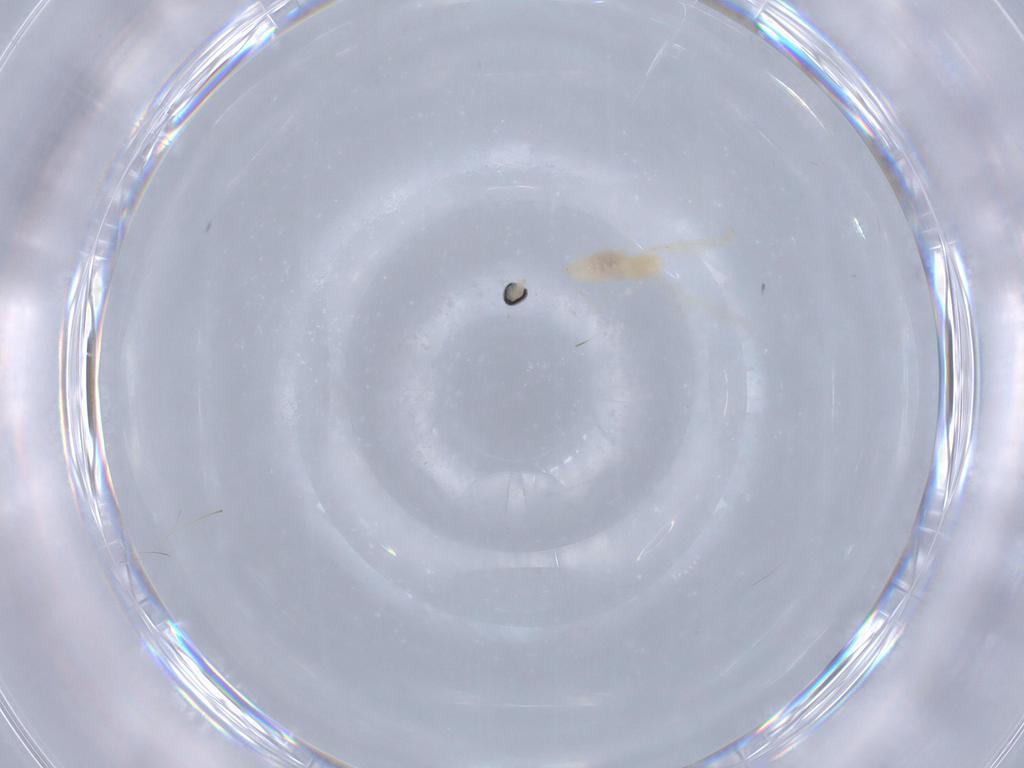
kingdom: Animalia
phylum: Arthropoda
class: Insecta
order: Diptera
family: Cecidomyiidae
